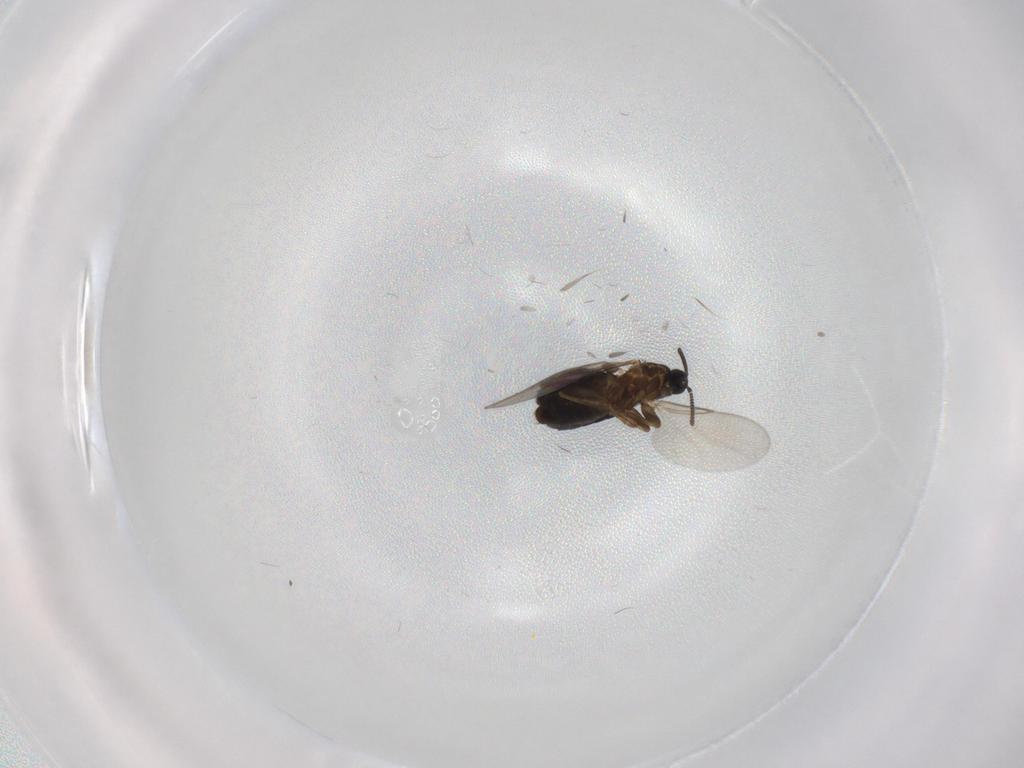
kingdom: Animalia
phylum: Arthropoda
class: Insecta
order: Diptera
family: Scatopsidae
